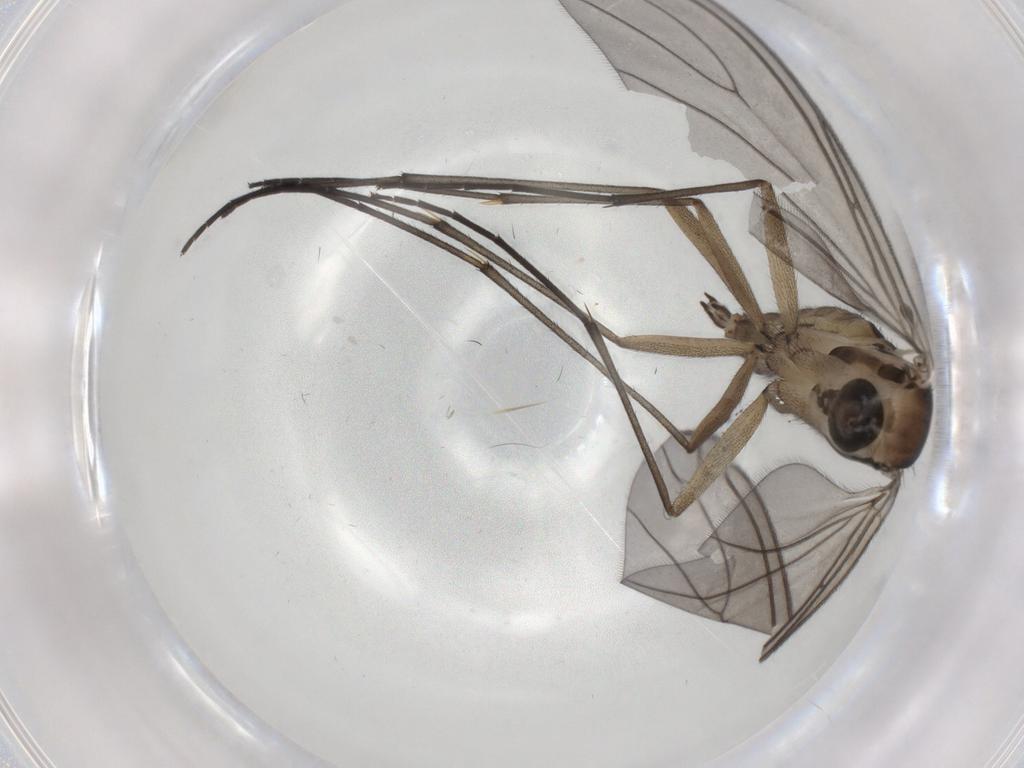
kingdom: Animalia
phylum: Arthropoda
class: Insecta
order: Diptera
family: Sciaridae
